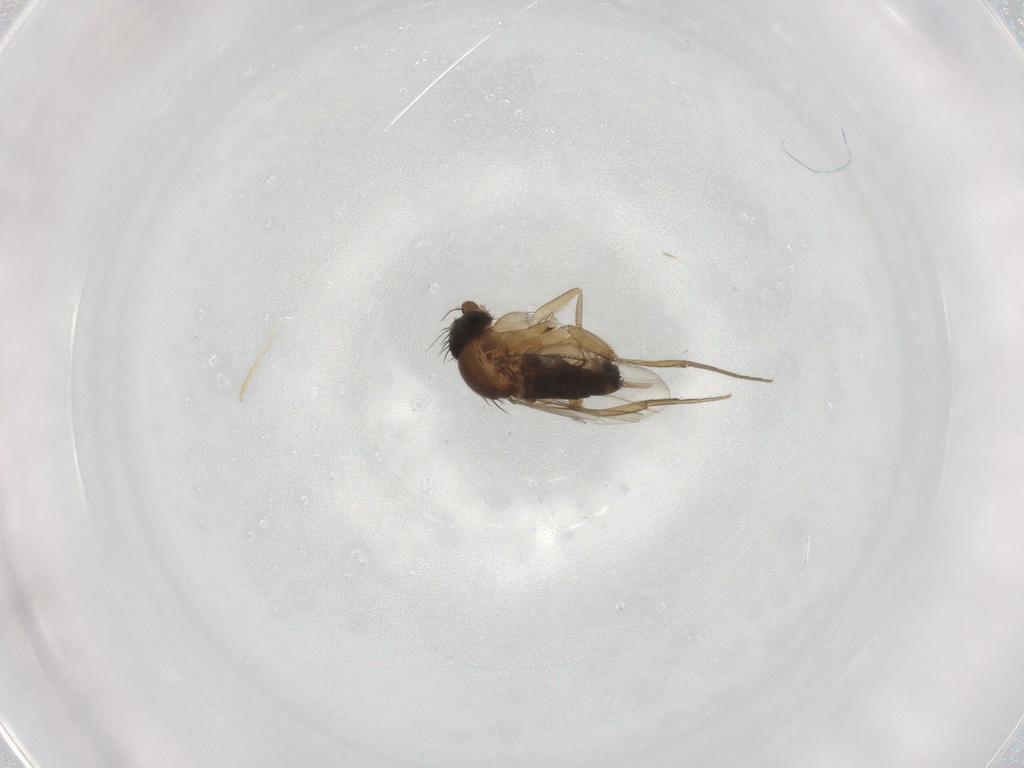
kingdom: Animalia
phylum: Arthropoda
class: Insecta
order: Diptera
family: Phoridae
